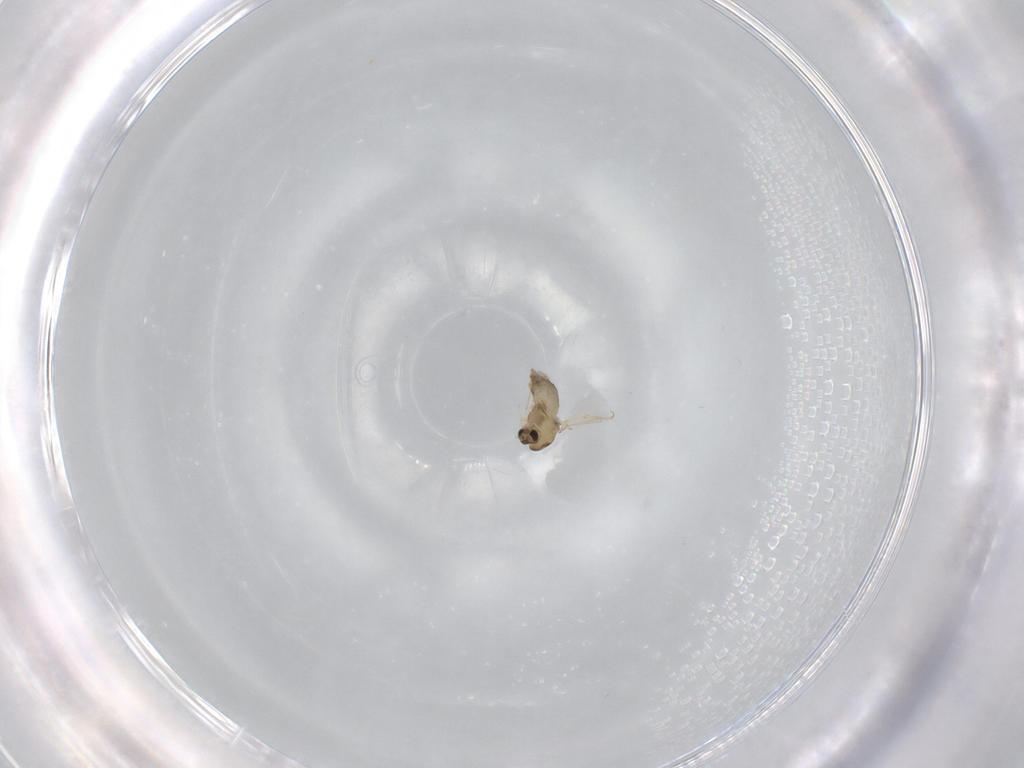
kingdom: Animalia
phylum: Arthropoda
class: Insecta
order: Diptera
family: Chironomidae
